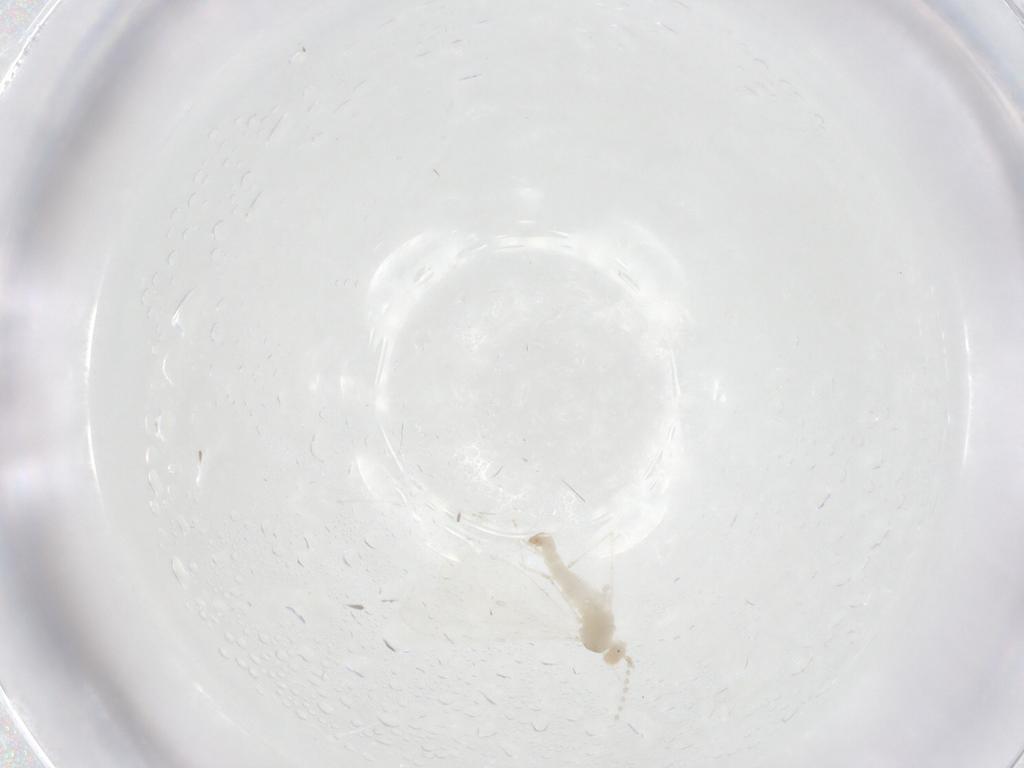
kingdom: Animalia
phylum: Arthropoda
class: Insecta
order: Diptera
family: Cecidomyiidae
